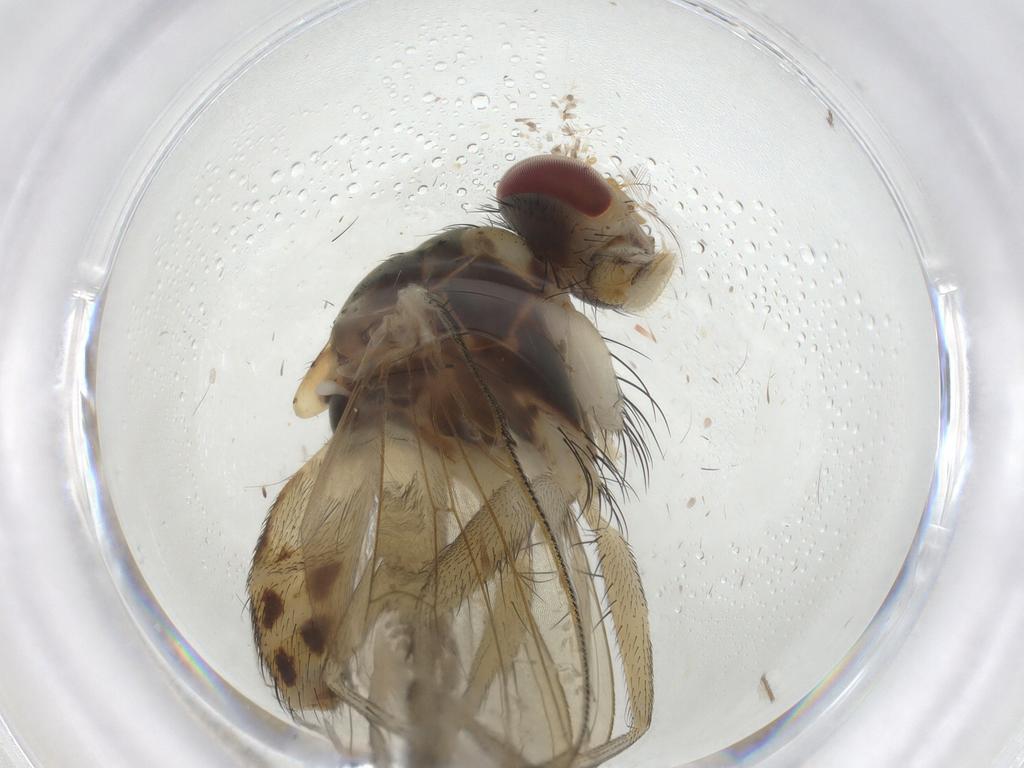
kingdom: Animalia
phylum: Arthropoda
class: Insecta
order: Diptera
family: Muscidae
